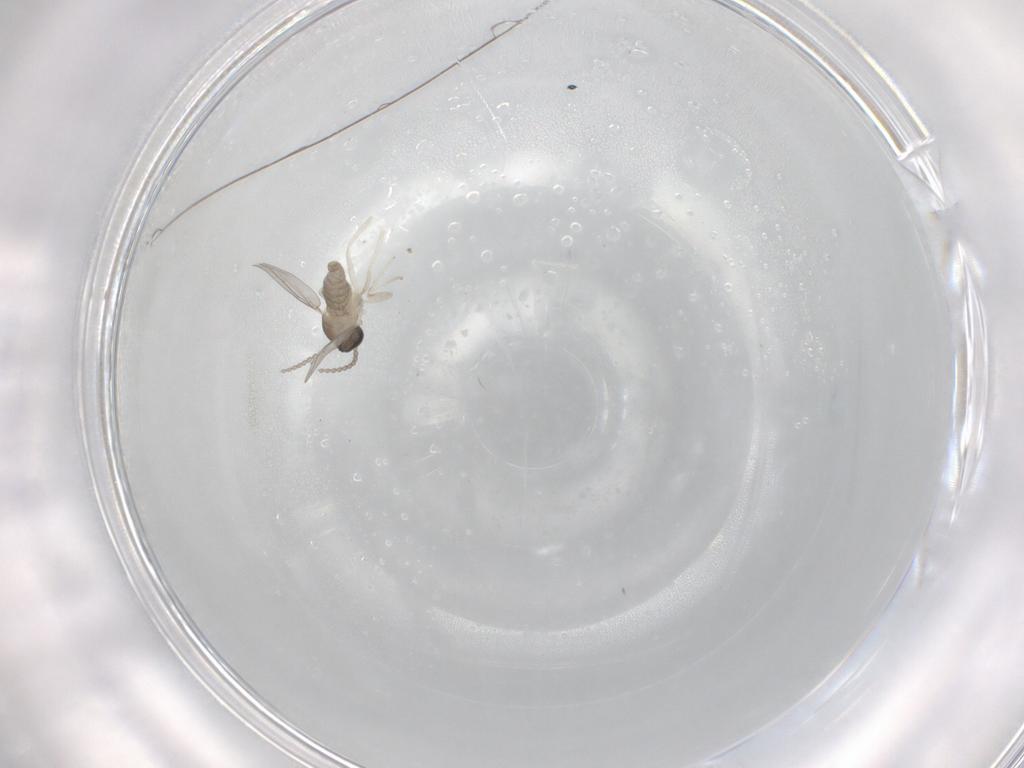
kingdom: Animalia
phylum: Arthropoda
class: Insecta
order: Diptera
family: Cecidomyiidae
